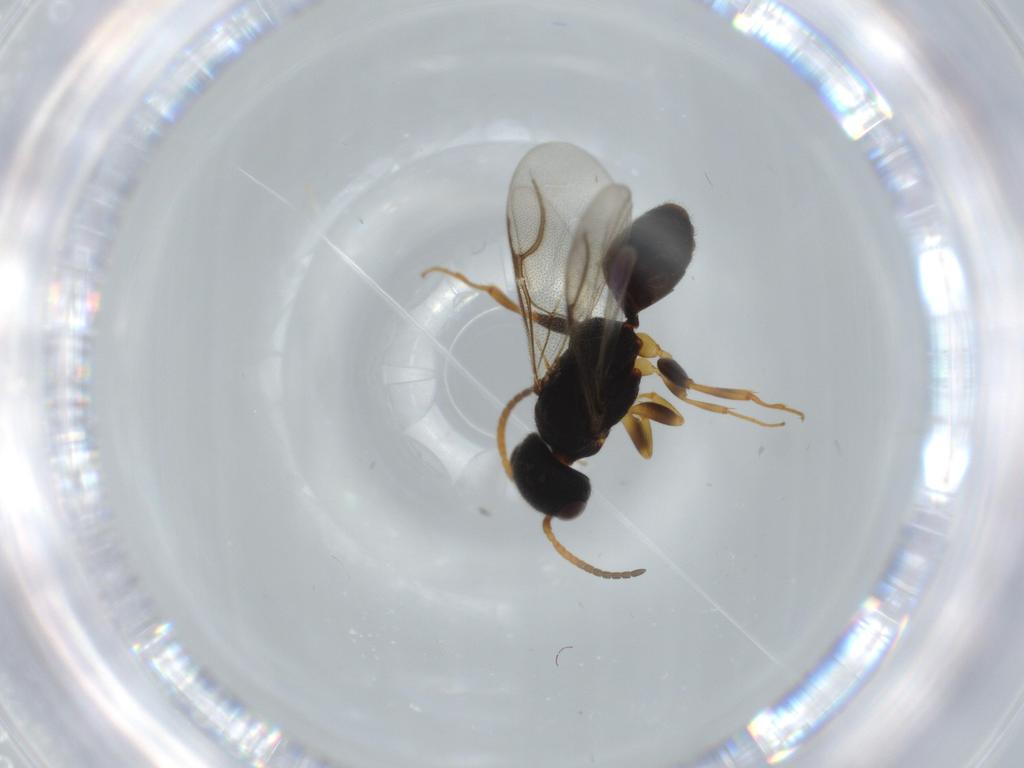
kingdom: Animalia
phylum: Arthropoda
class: Insecta
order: Hymenoptera
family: Bethylidae
